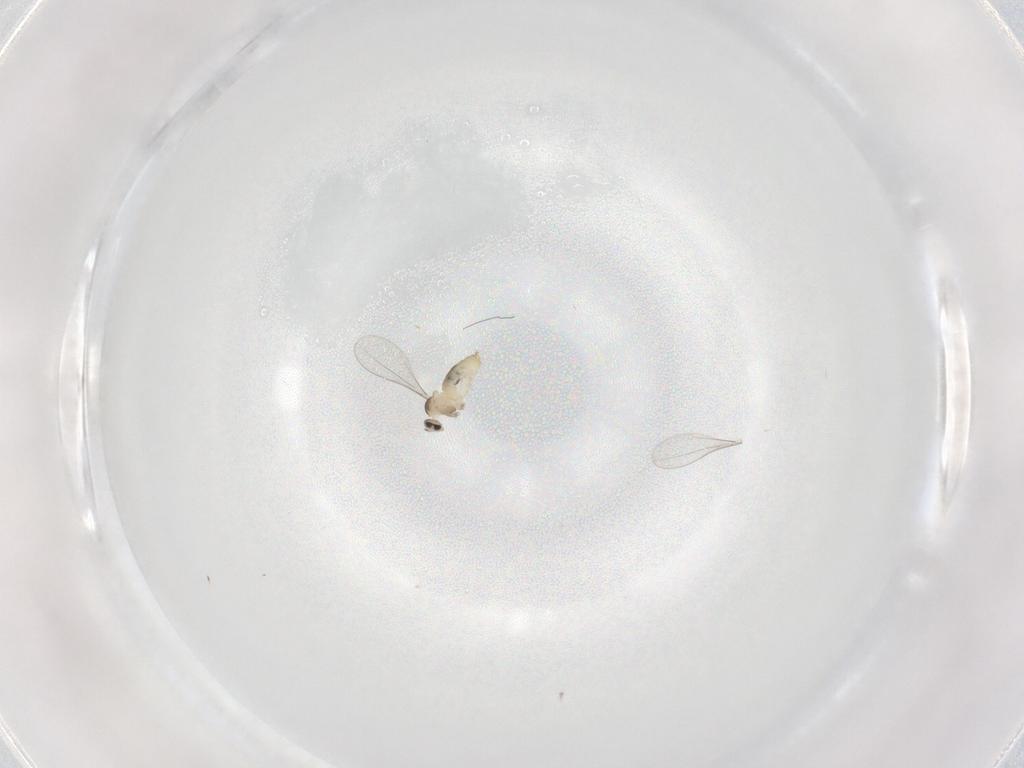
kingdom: Animalia
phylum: Arthropoda
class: Insecta
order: Diptera
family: Cecidomyiidae
